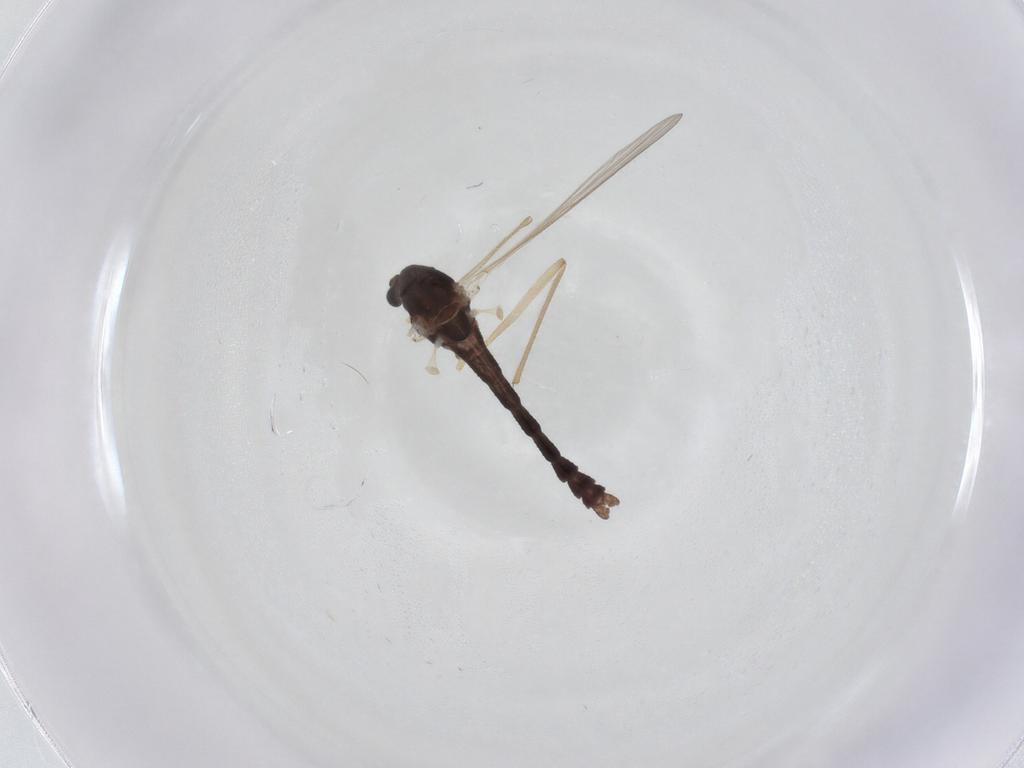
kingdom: Animalia
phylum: Arthropoda
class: Insecta
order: Diptera
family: Chironomidae
